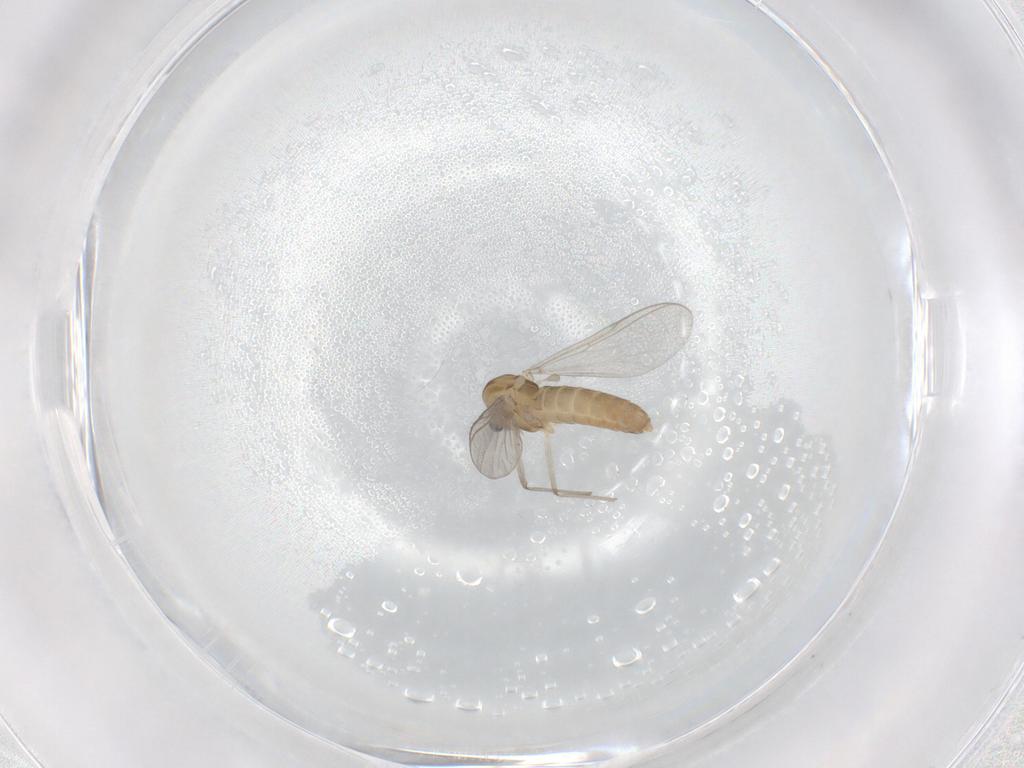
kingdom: Animalia
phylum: Arthropoda
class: Insecta
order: Diptera
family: Chironomidae
